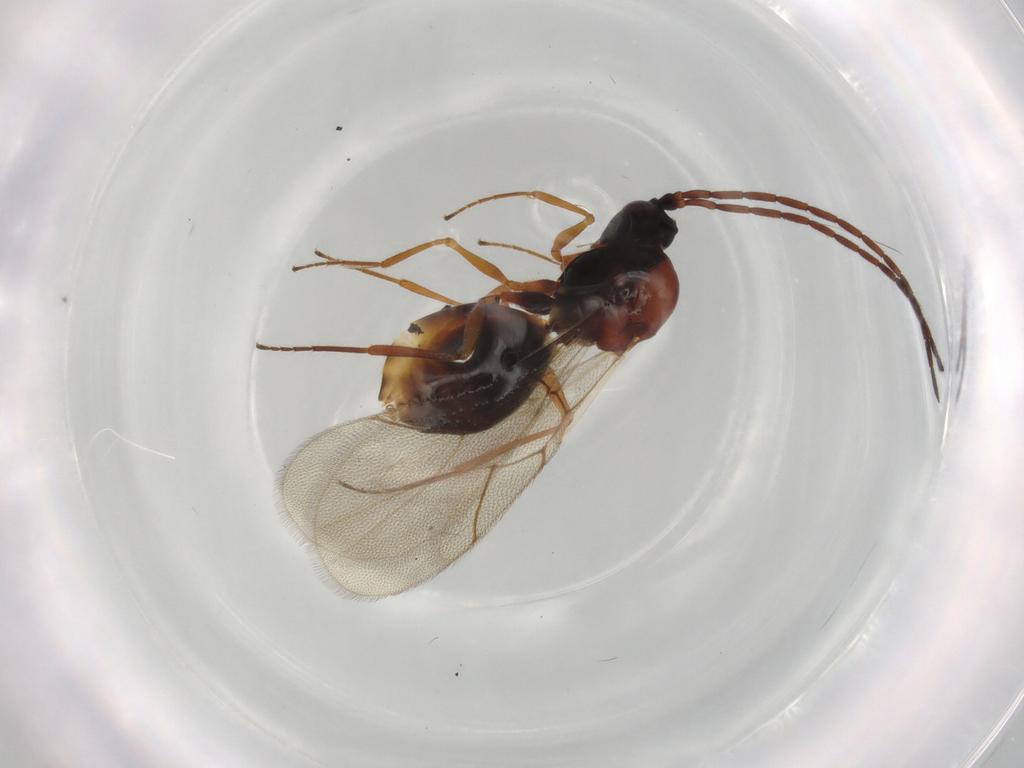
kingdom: Animalia
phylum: Arthropoda
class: Insecta
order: Hymenoptera
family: Figitidae
